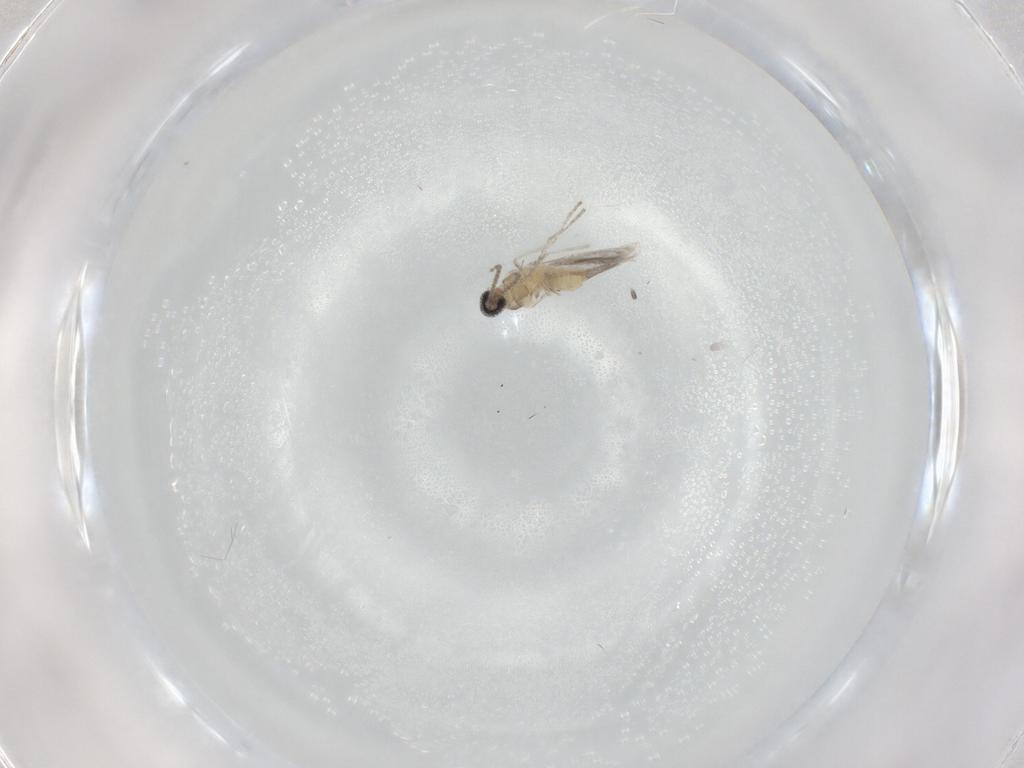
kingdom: Animalia
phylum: Arthropoda
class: Insecta
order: Diptera
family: Cecidomyiidae
